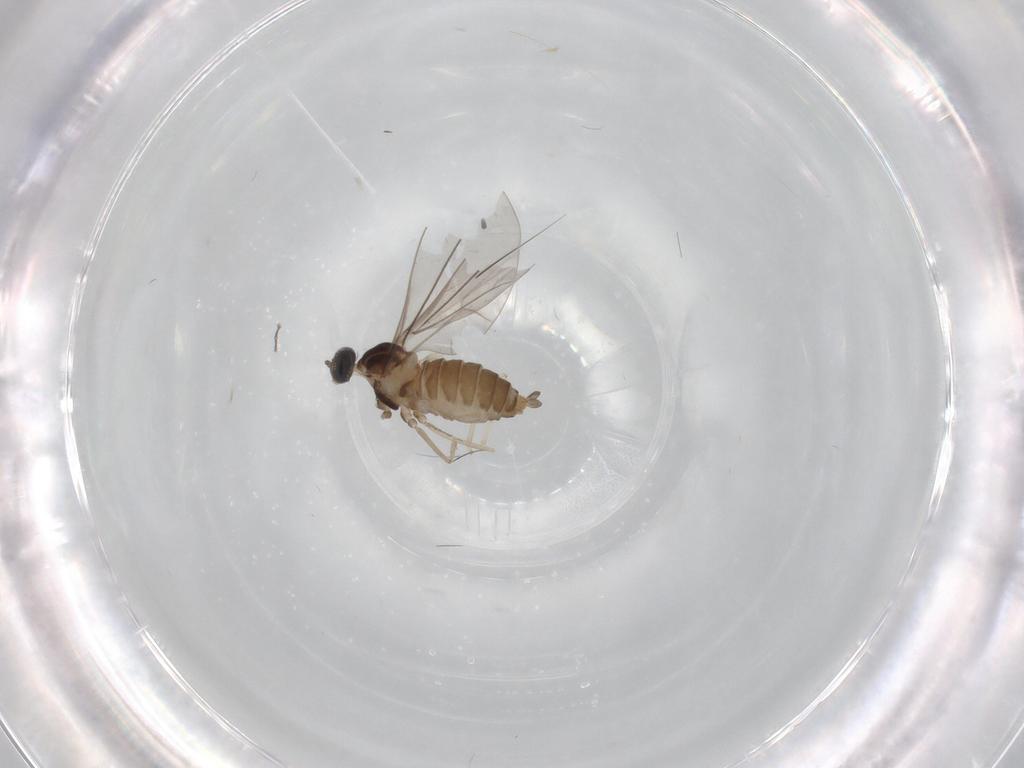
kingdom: Animalia
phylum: Arthropoda
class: Insecta
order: Diptera
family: Cecidomyiidae
